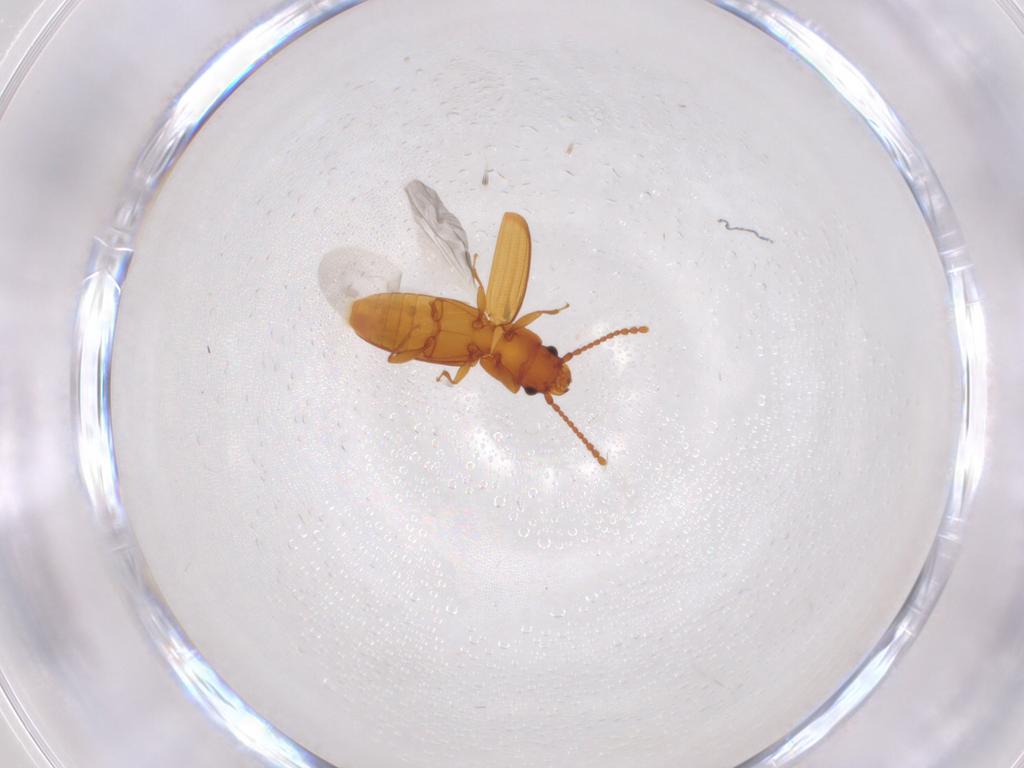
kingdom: Animalia
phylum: Arthropoda
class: Insecta
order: Coleoptera
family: Laemophloeidae
